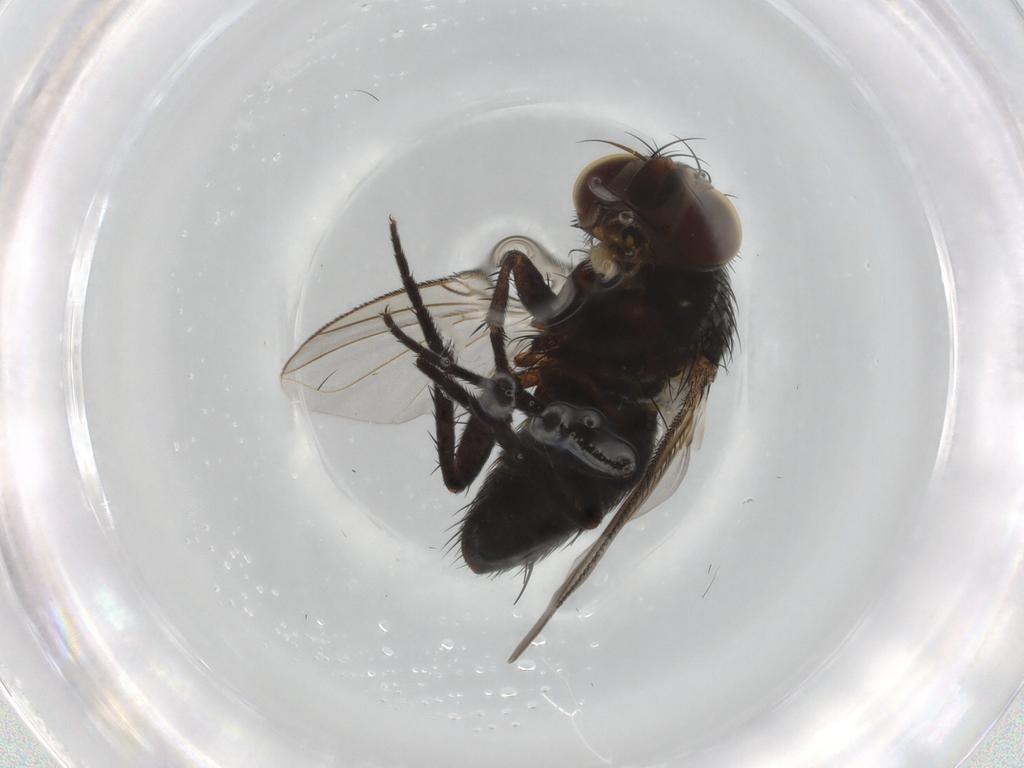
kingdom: Animalia
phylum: Arthropoda
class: Insecta
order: Diptera
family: Tachinidae
